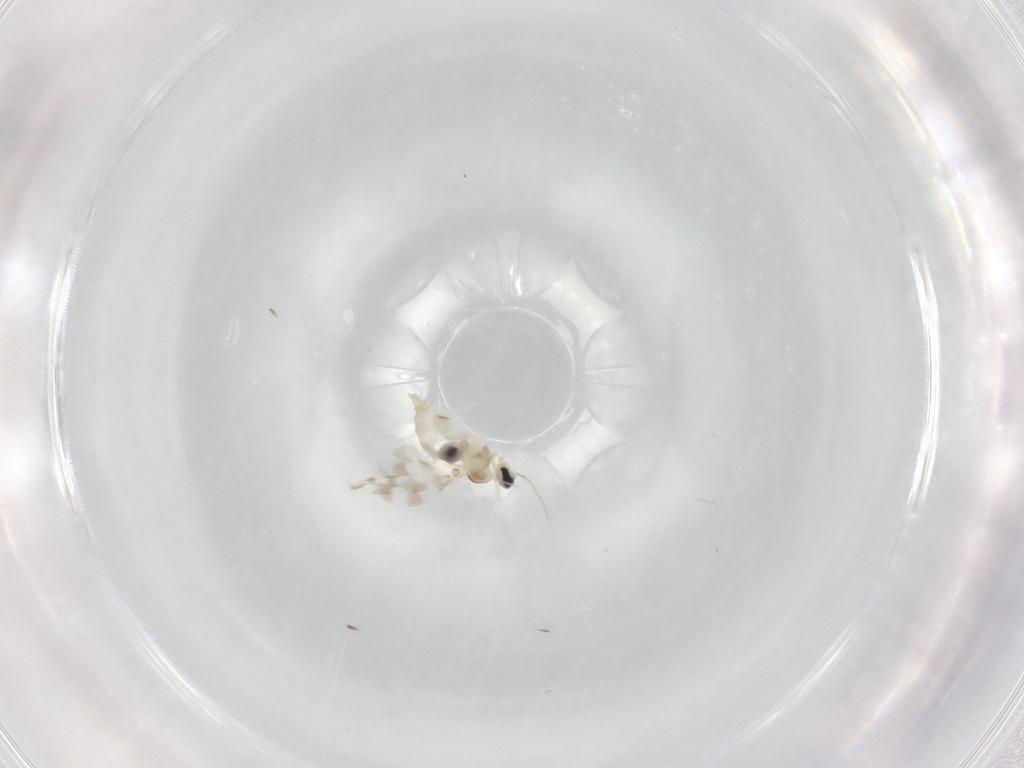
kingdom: Animalia
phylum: Arthropoda
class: Insecta
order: Diptera
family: Cecidomyiidae
